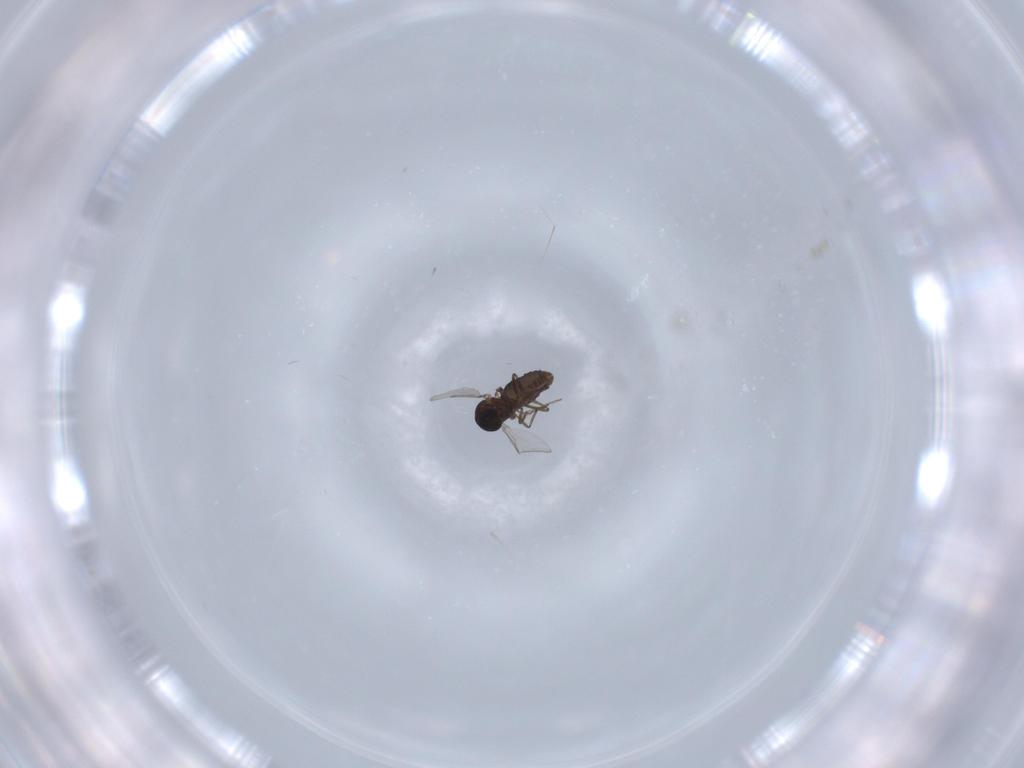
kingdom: Animalia
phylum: Arthropoda
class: Insecta
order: Diptera
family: Ceratopogonidae
